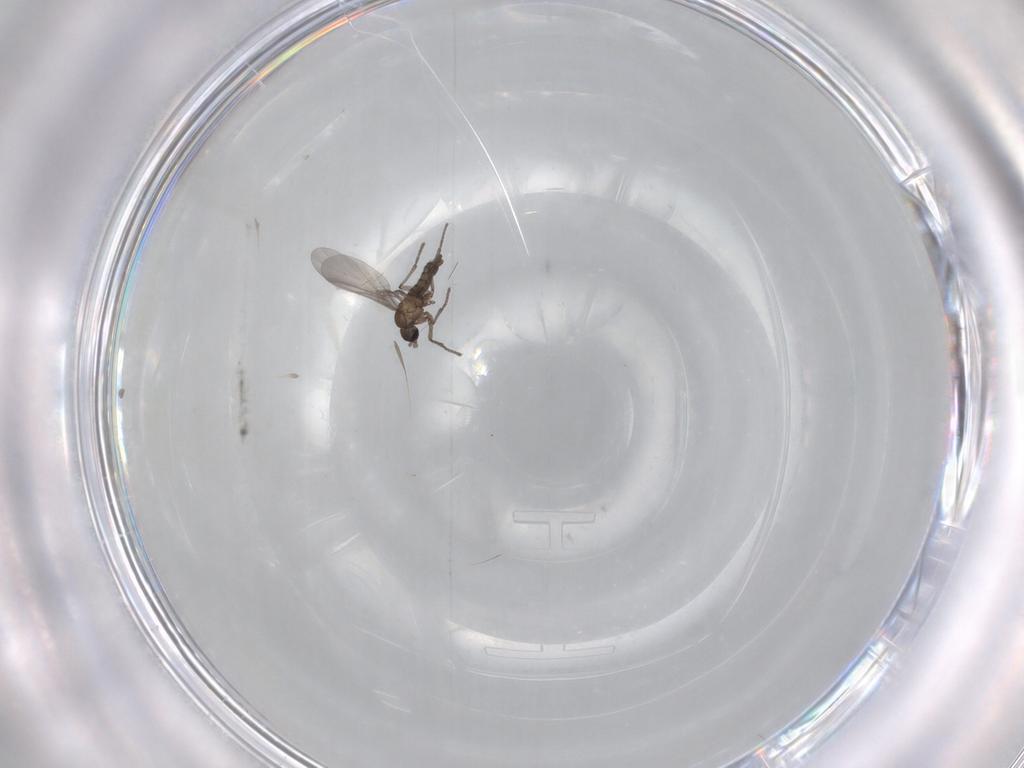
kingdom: Animalia
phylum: Arthropoda
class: Insecta
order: Diptera
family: Sciaridae
